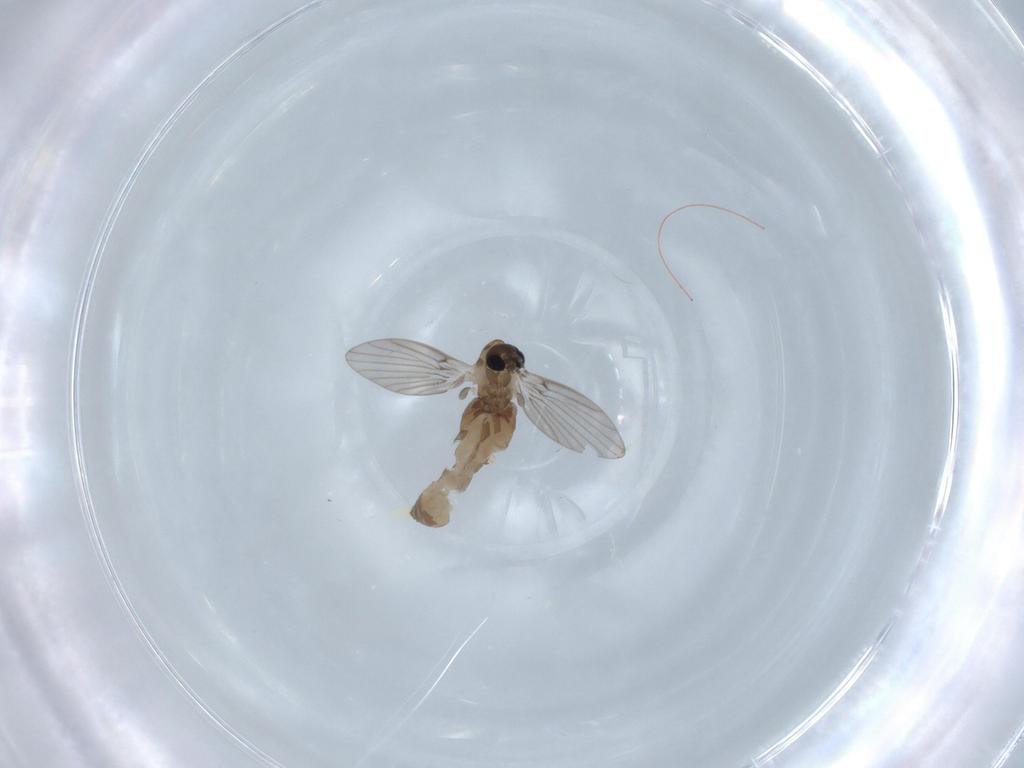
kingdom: Animalia
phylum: Arthropoda
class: Insecta
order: Diptera
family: Psychodidae
